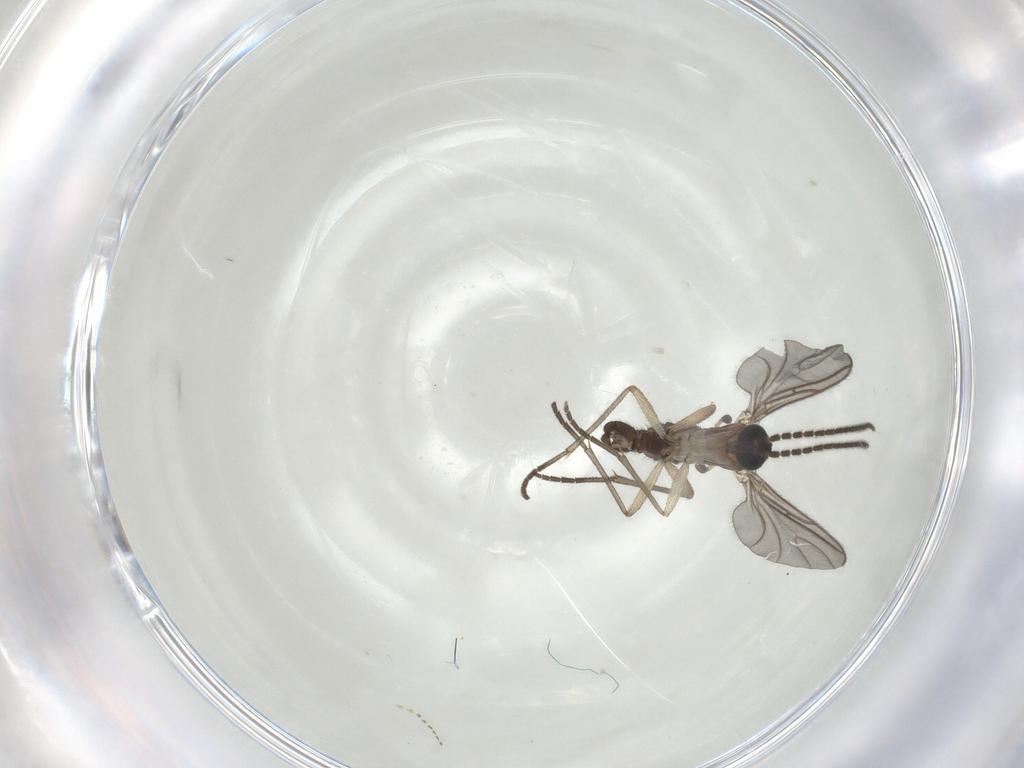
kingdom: Animalia
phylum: Arthropoda
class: Insecta
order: Diptera
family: Sciaridae
